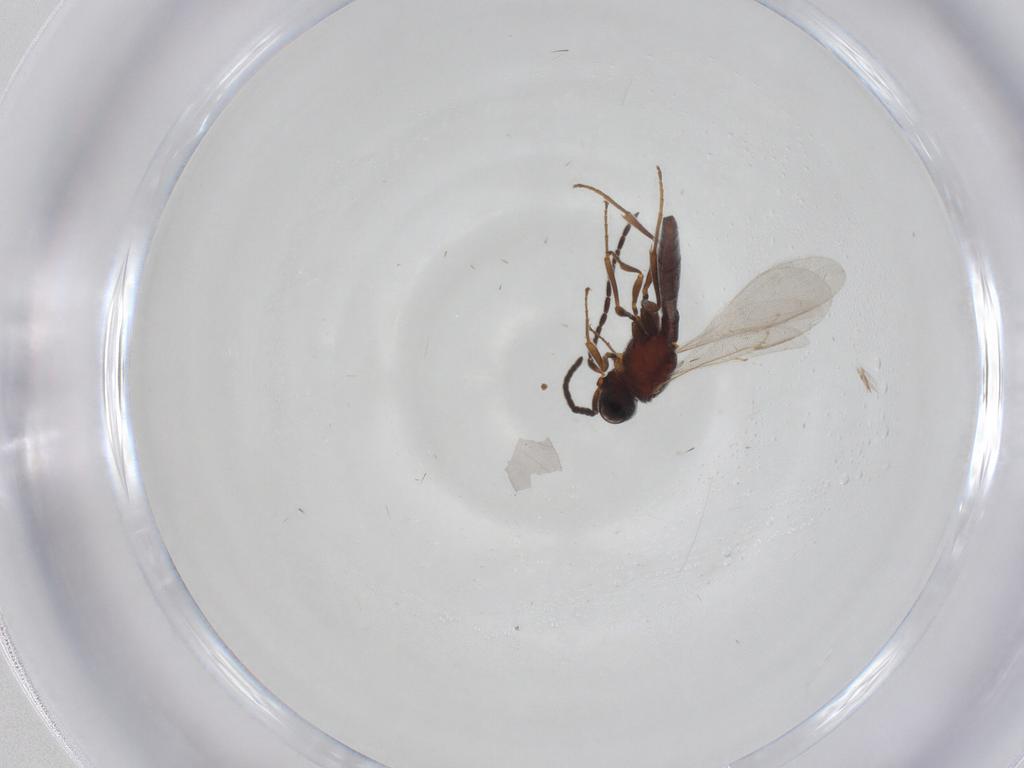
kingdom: Animalia
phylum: Arthropoda
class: Insecta
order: Hymenoptera
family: Scelionidae
